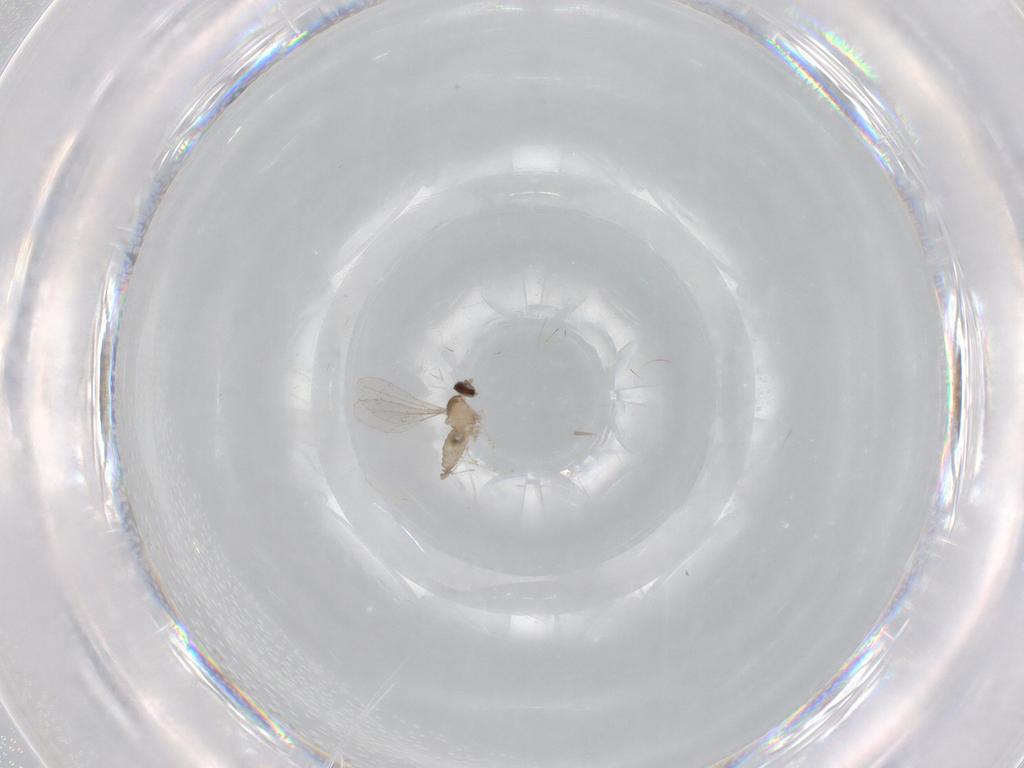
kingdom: Animalia
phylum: Arthropoda
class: Insecta
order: Diptera
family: Cecidomyiidae
